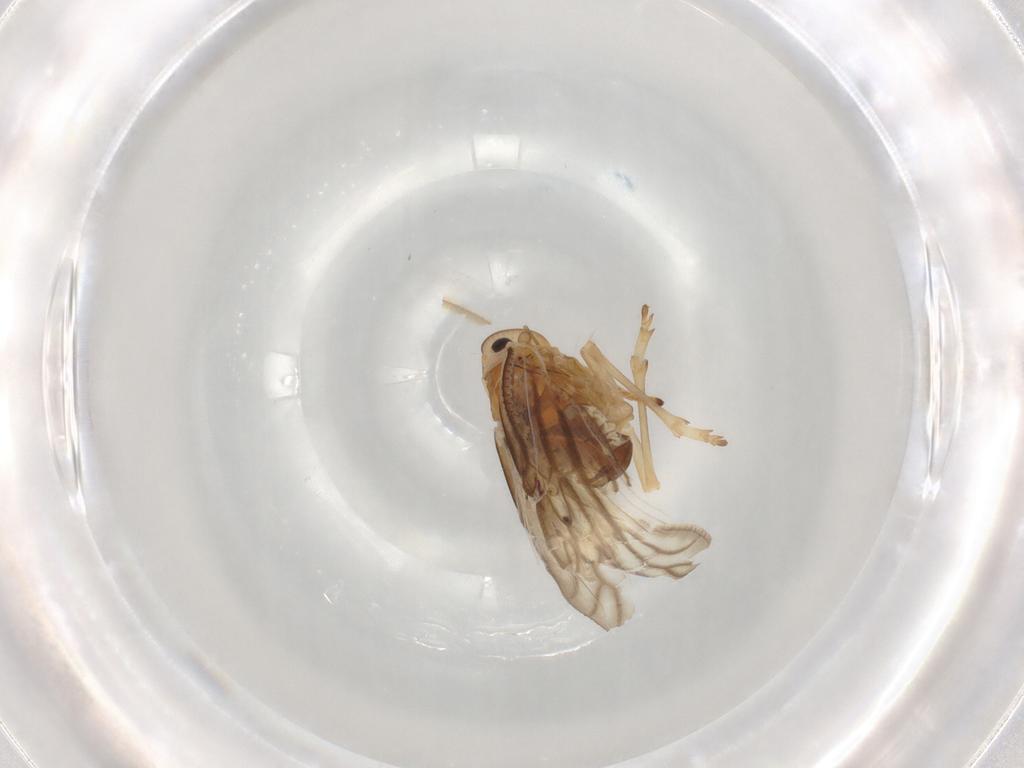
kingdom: Animalia
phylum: Arthropoda
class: Insecta
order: Hemiptera
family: Meenoplidae
